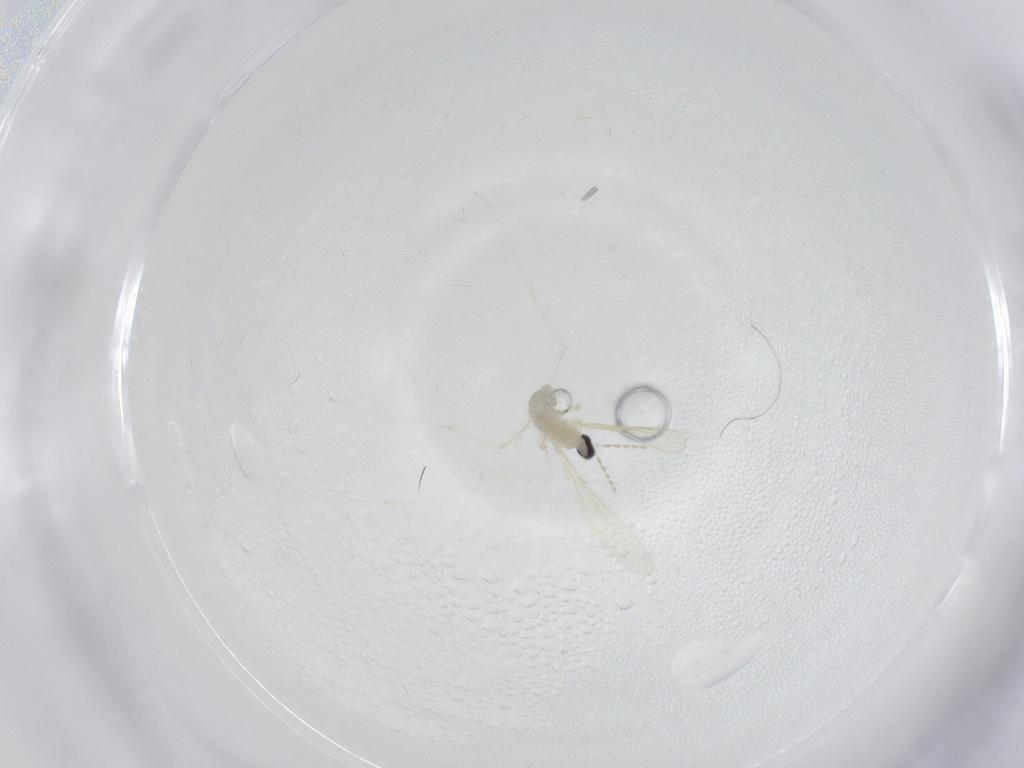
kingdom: Animalia
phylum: Arthropoda
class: Insecta
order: Diptera
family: Cecidomyiidae
